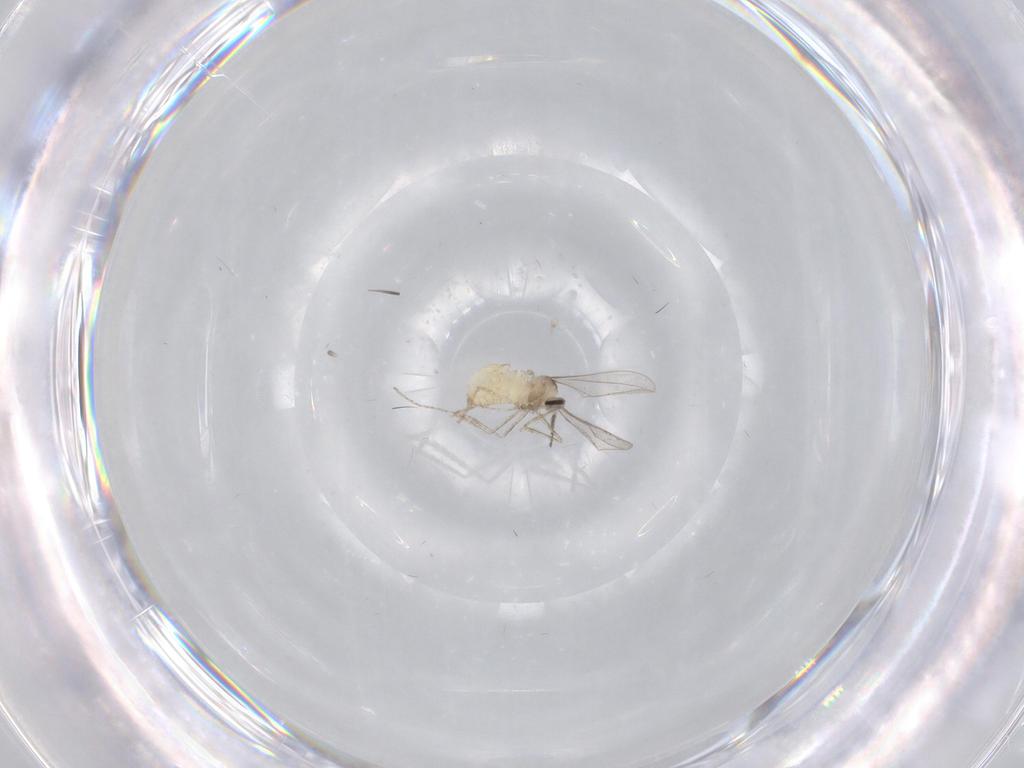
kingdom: Animalia
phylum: Arthropoda
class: Insecta
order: Diptera
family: Cecidomyiidae
